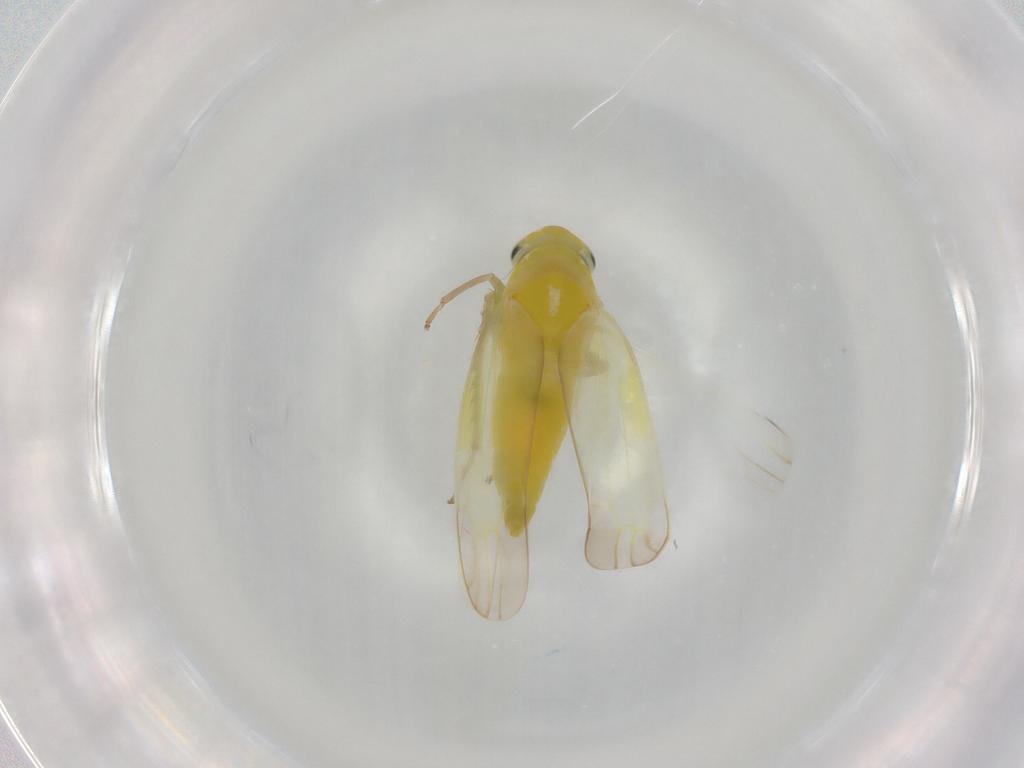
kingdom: Animalia
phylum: Arthropoda
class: Insecta
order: Hemiptera
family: Cicadellidae
